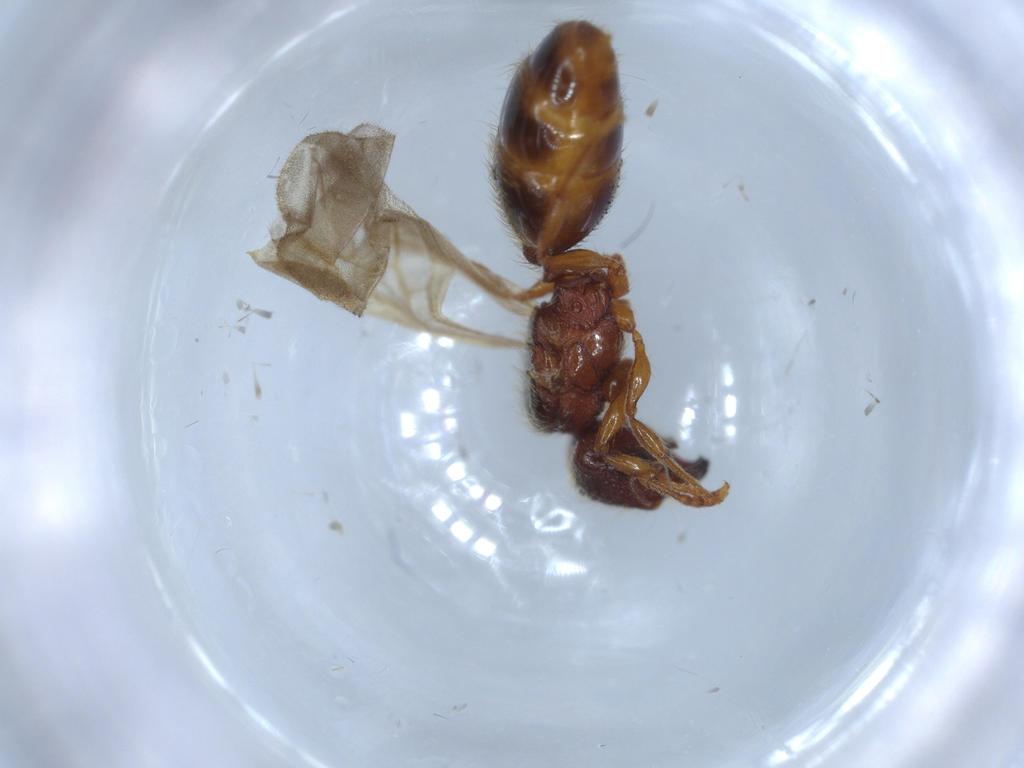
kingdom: Animalia
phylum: Arthropoda
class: Insecta
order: Hymenoptera
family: Formicidae
